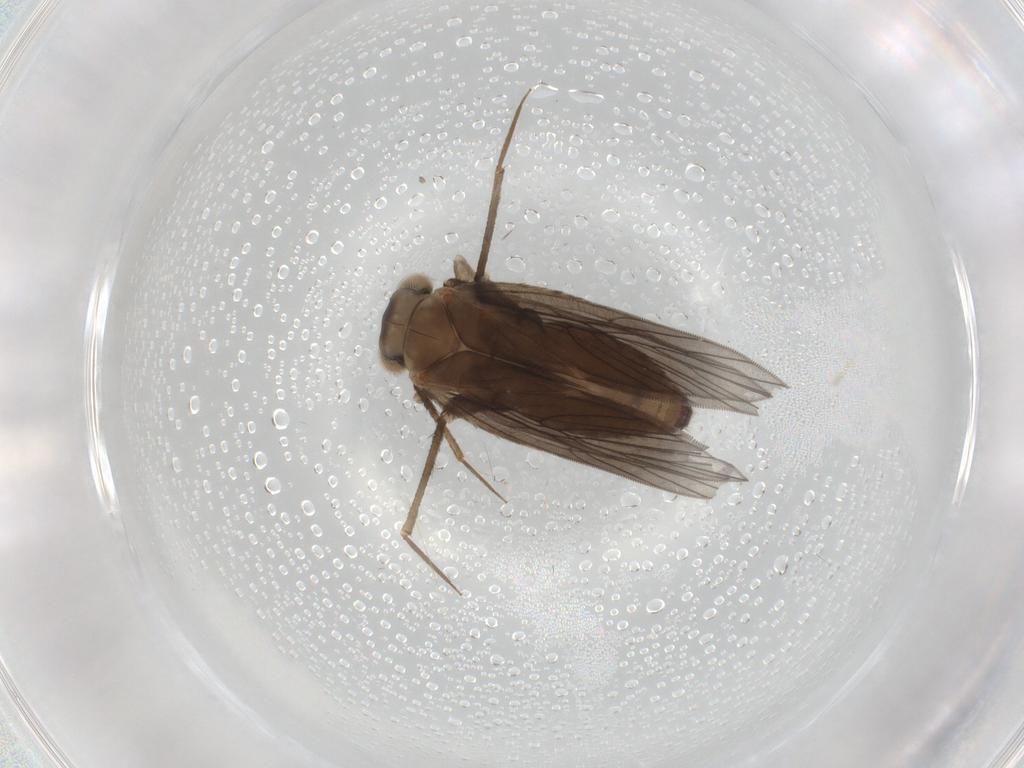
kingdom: Animalia
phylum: Arthropoda
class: Insecta
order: Psocodea
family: Lepidopsocidae
